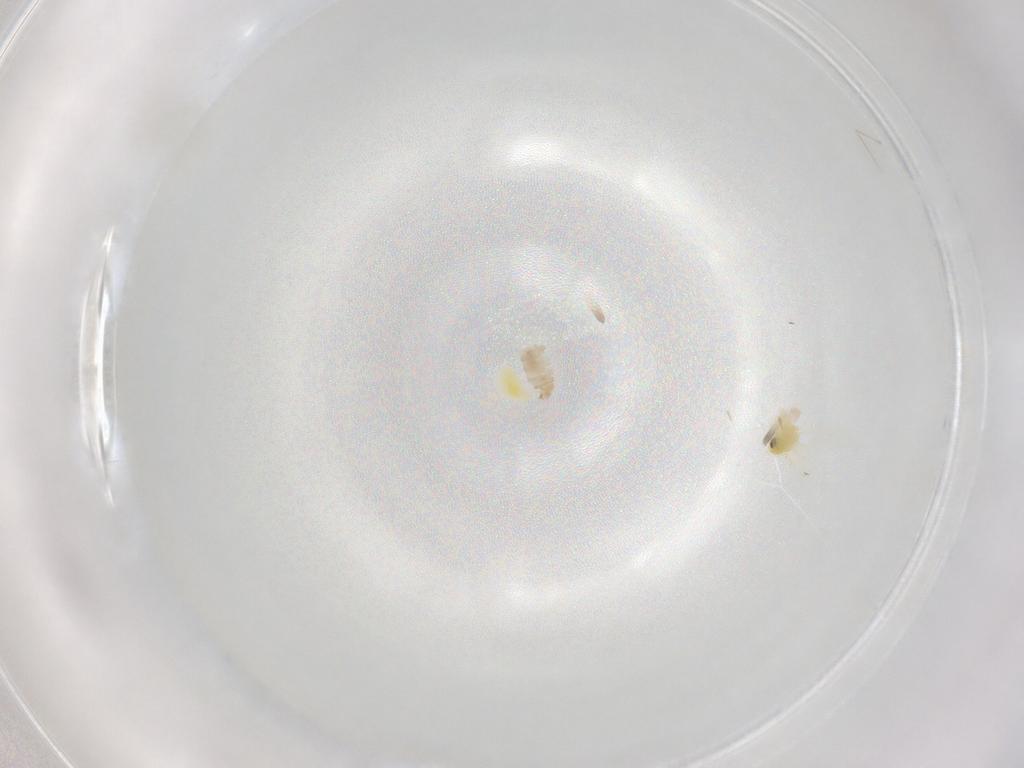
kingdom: Animalia
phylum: Arthropoda
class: Insecta
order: Diptera
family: Cecidomyiidae
